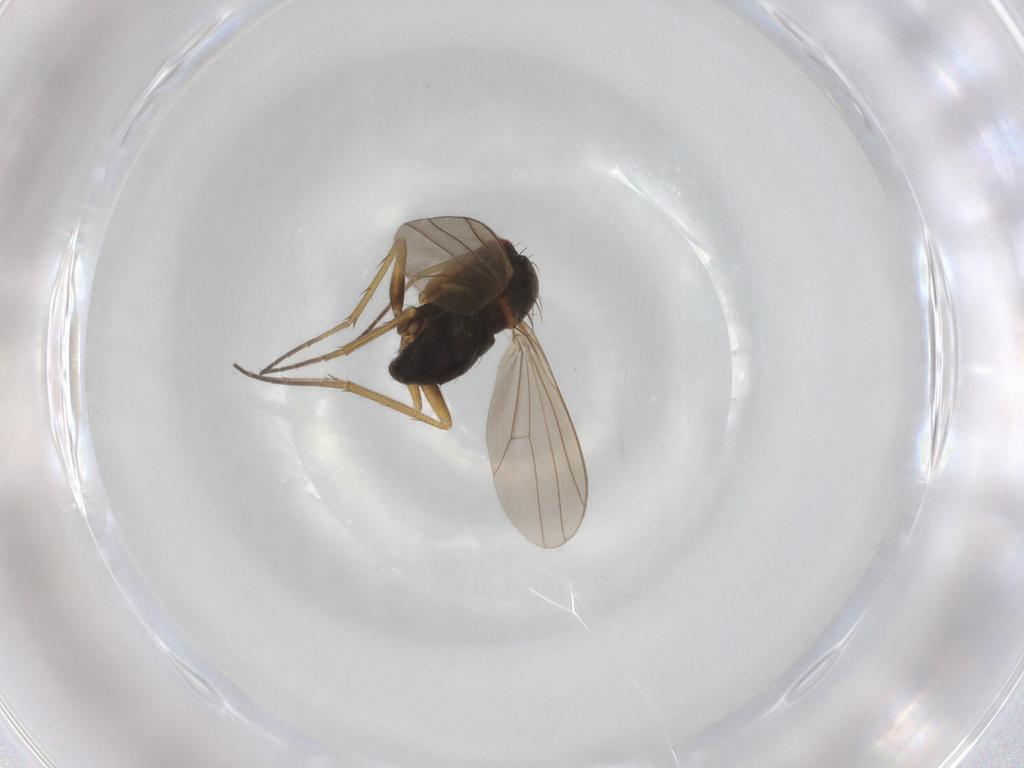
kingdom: Animalia
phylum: Arthropoda
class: Insecta
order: Diptera
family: Dolichopodidae
